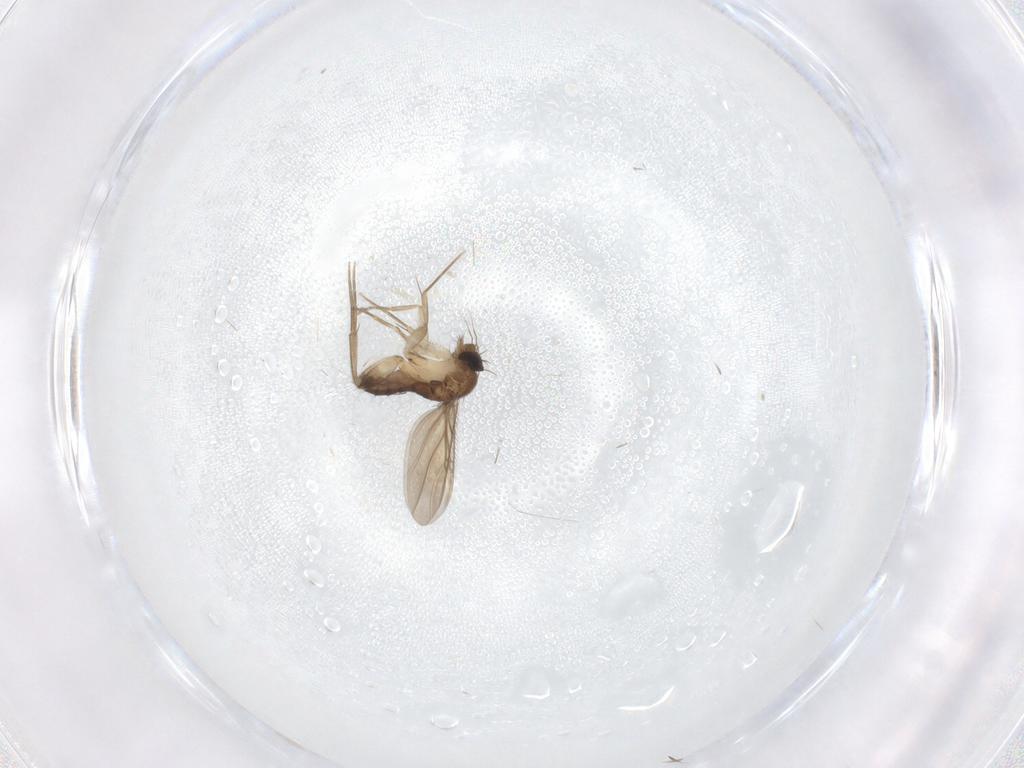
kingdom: Animalia
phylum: Arthropoda
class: Insecta
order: Diptera
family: Phoridae
